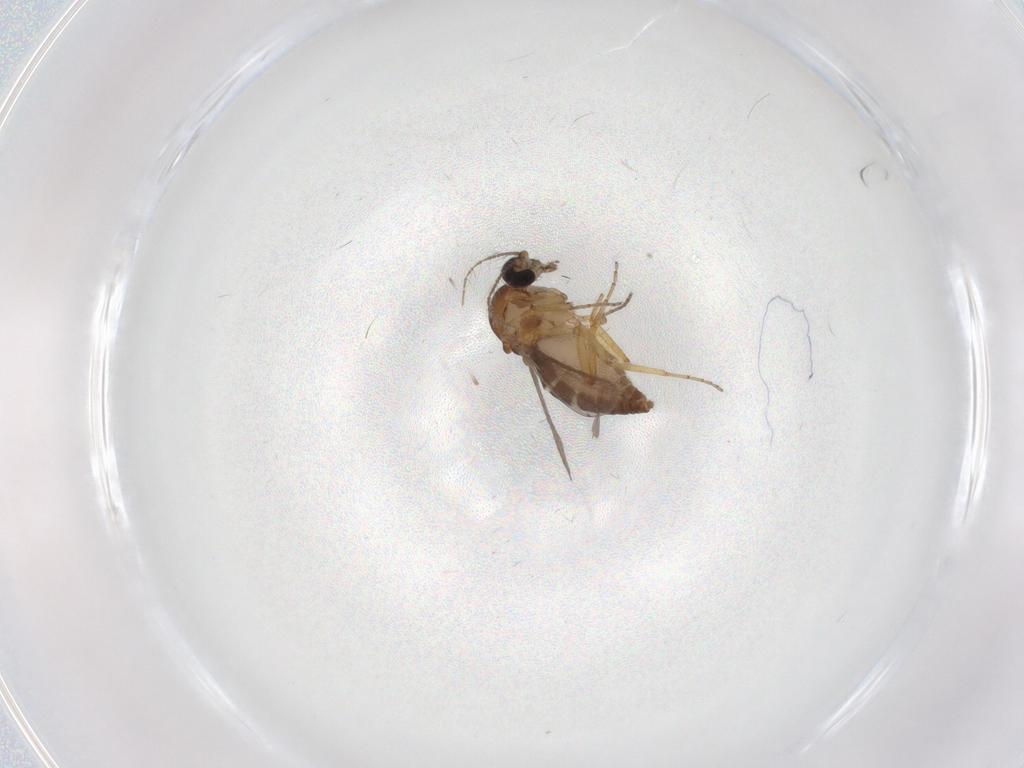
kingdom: Animalia
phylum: Arthropoda
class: Insecta
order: Diptera
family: Ceratopogonidae
